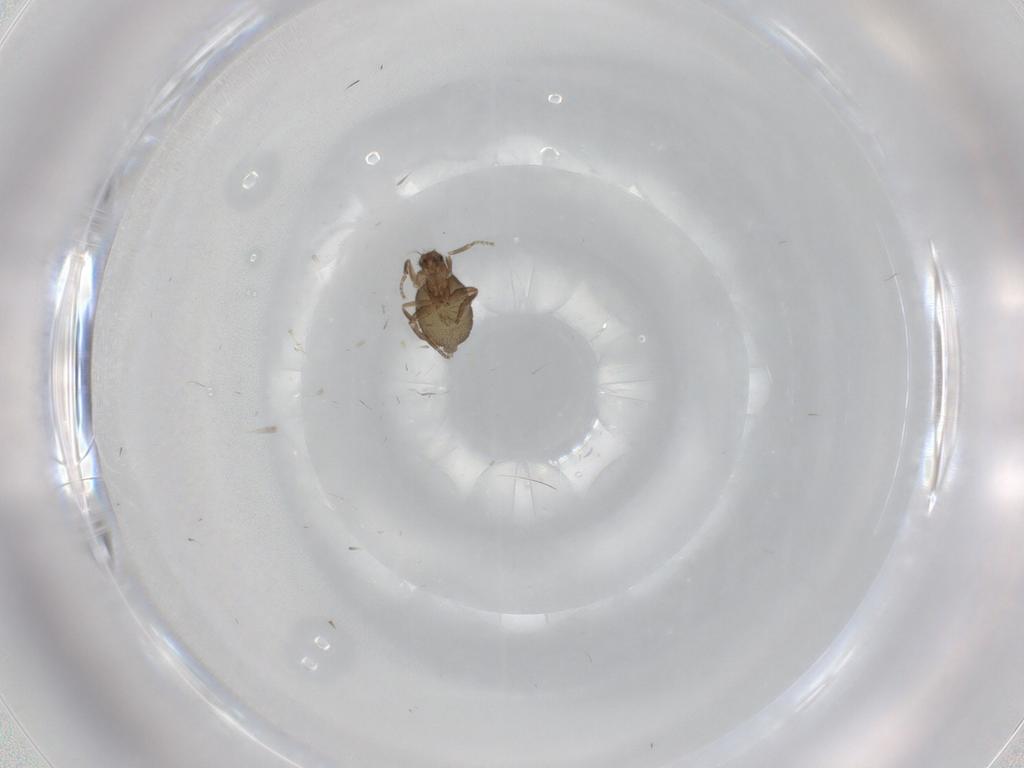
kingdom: Animalia
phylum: Arthropoda
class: Insecta
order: Diptera
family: Phoridae
